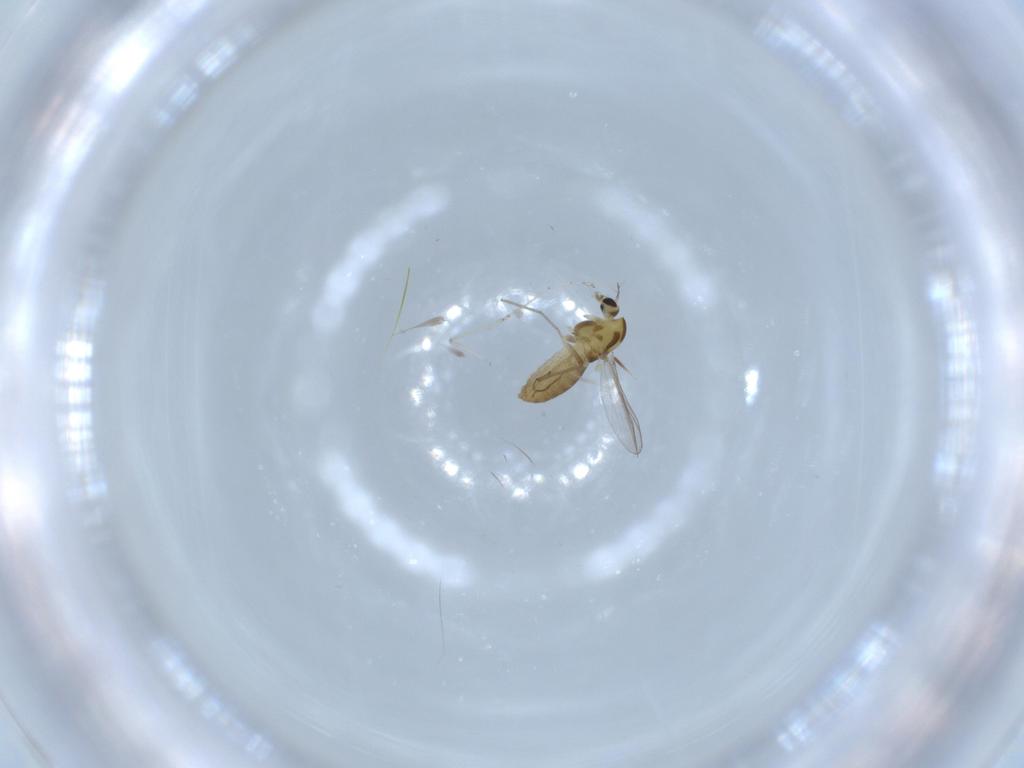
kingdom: Animalia
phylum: Arthropoda
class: Insecta
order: Diptera
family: Cecidomyiidae
